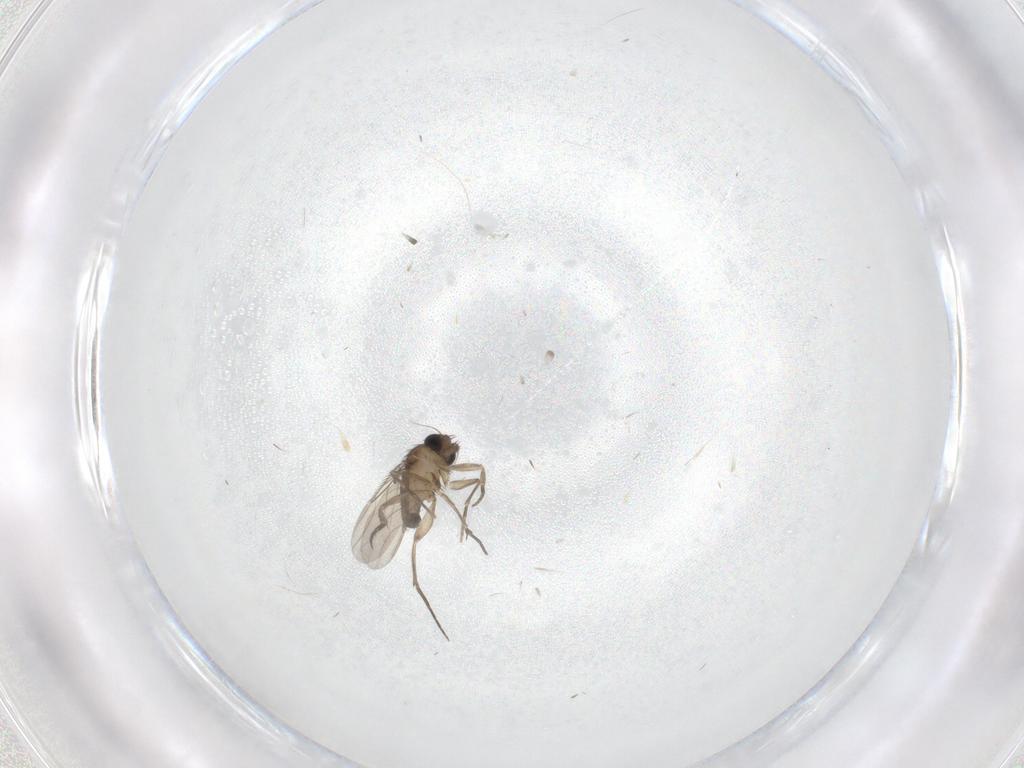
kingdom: Animalia
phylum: Arthropoda
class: Insecta
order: Diptera
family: Phoridae
